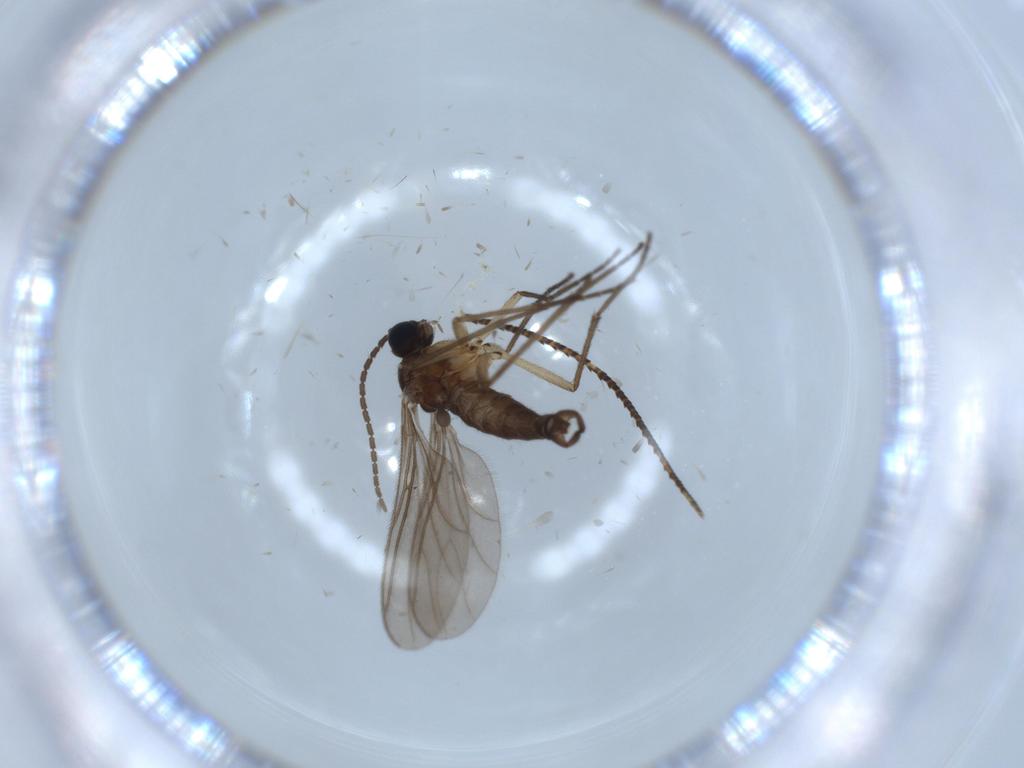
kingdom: Animalia
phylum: Arthropoda
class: Insecta
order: Diptera
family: Sciaridae
